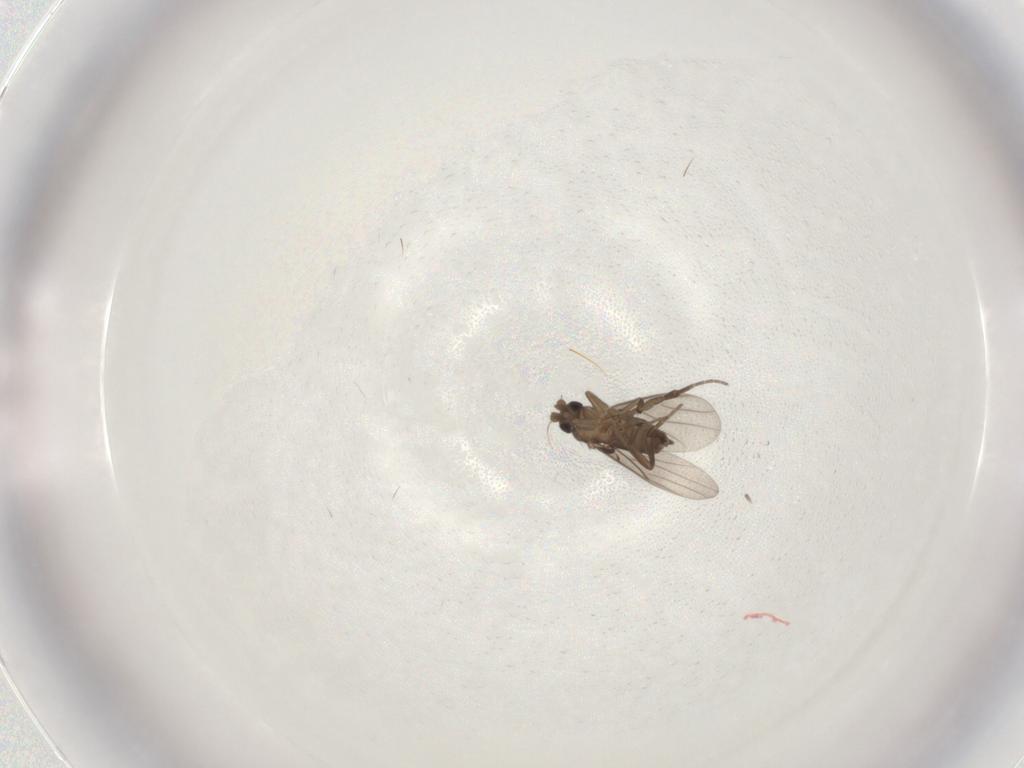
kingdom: Animalia
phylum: Arthropoda
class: Insecta
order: Diptera
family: Phoridae
